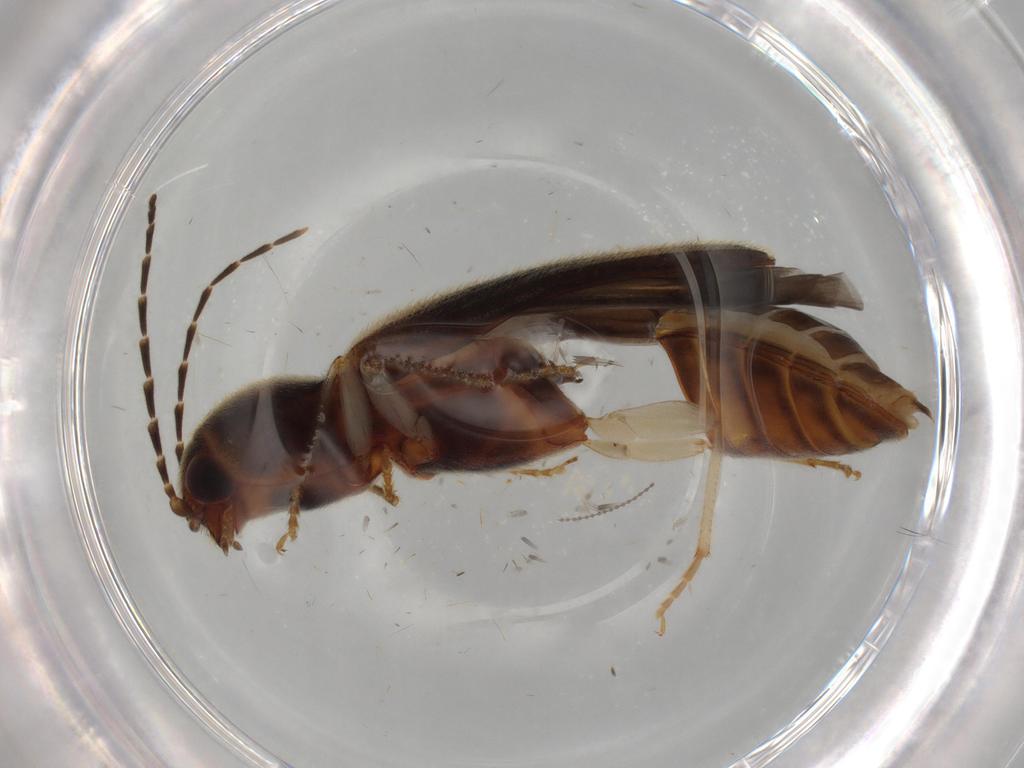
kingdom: Animalia
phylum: Arthropoda
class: Insecta
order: Coleoptera
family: Elateridae
